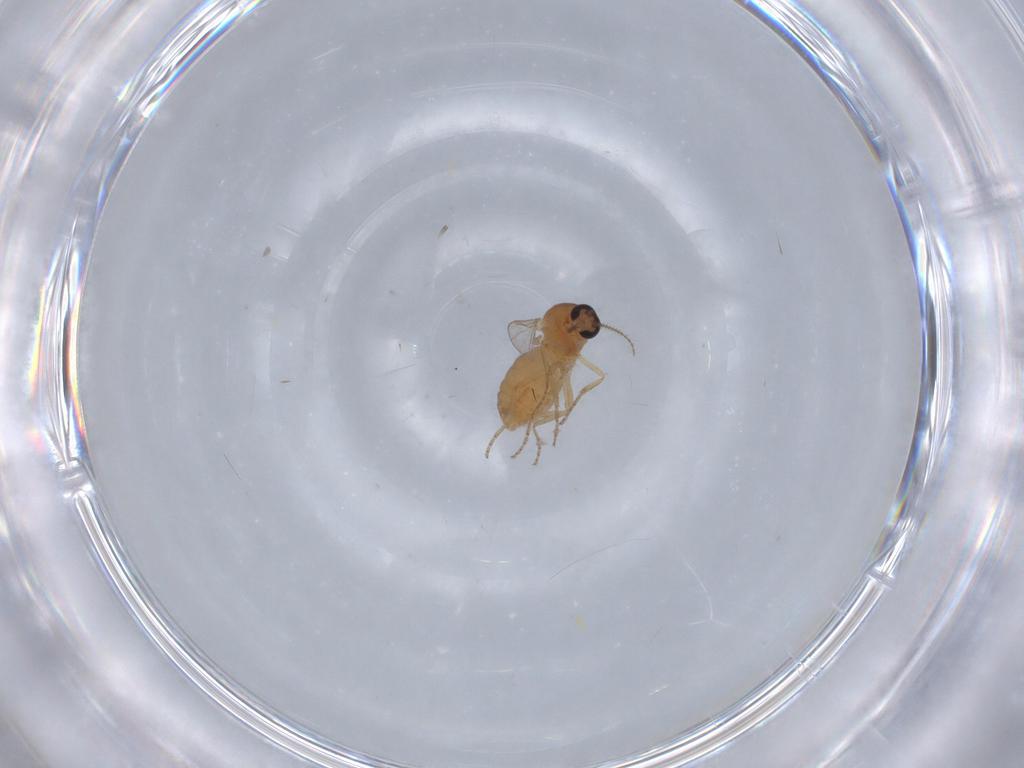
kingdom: Animalia
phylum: Arthropoda
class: Insecta
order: Diptera
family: Ceratopogonidae
